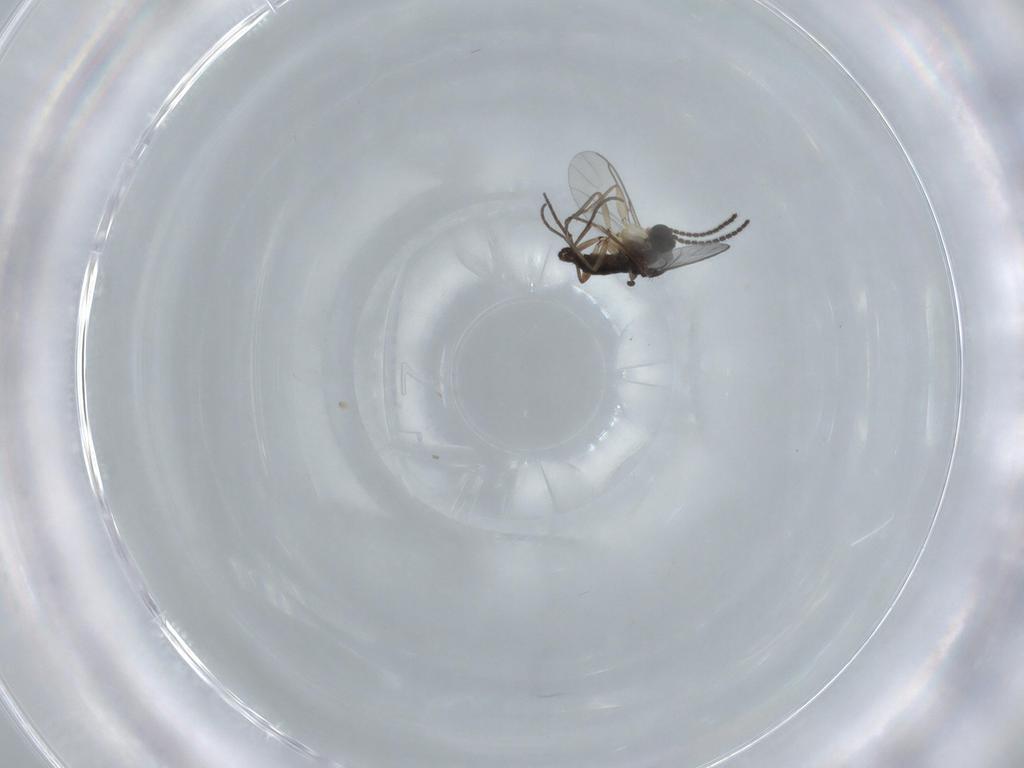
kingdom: Animalia
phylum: Arthropoda
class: Insecta
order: Diptera
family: Sciaridae
